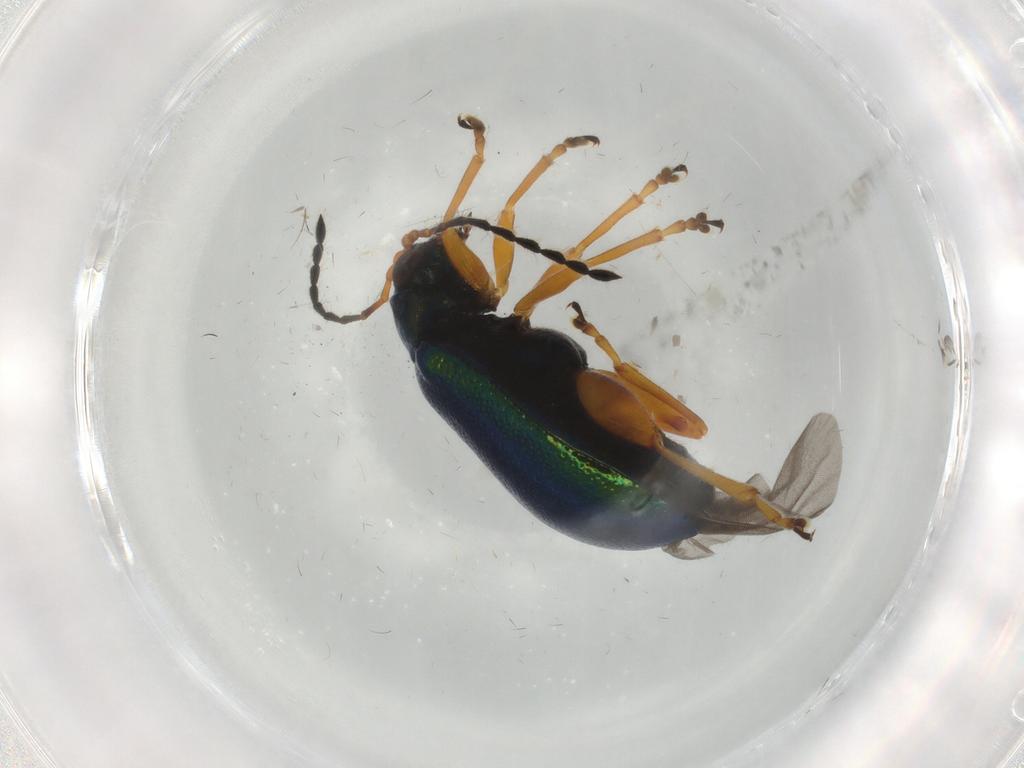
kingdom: Animalia
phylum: Arthropoda
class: Insecta
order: Coleoptera
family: Chrysomelidae
